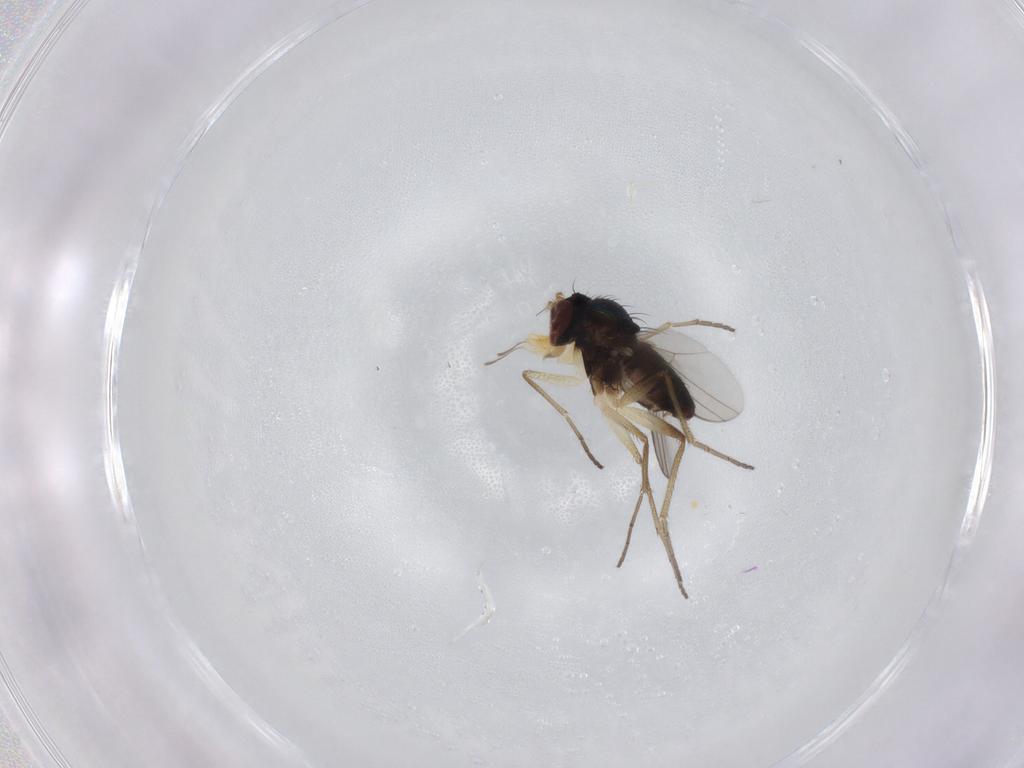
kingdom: Animalia
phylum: Arthropoda
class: Insecta
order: Diptera
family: Dolichopodidae
